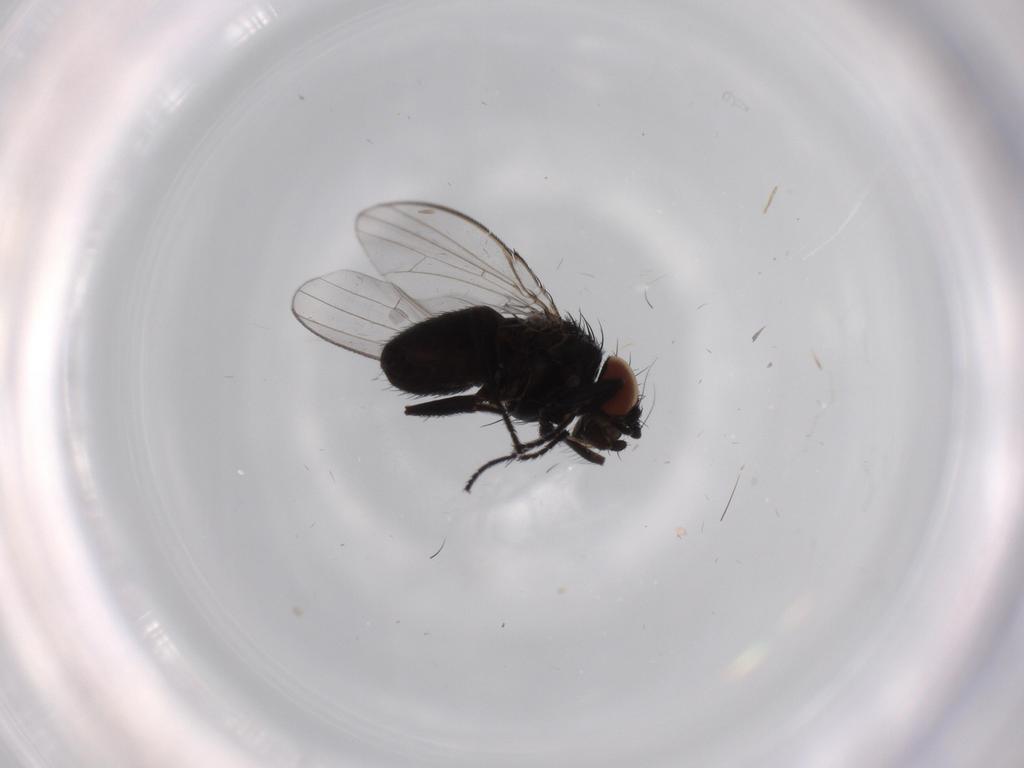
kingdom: Animalia
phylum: Arthropoda
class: Insecta
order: Diptera
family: Milichiidae
